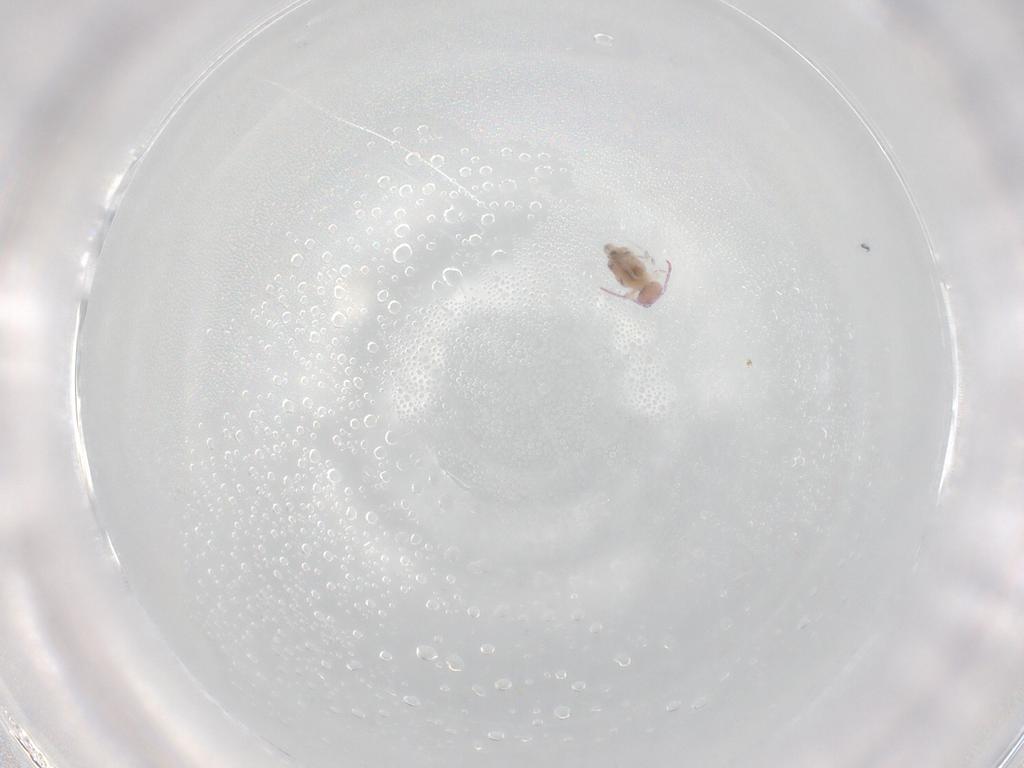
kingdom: Animalia
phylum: Arthropoda
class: Collembola
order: Symphypleona
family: Bourletiellidae
